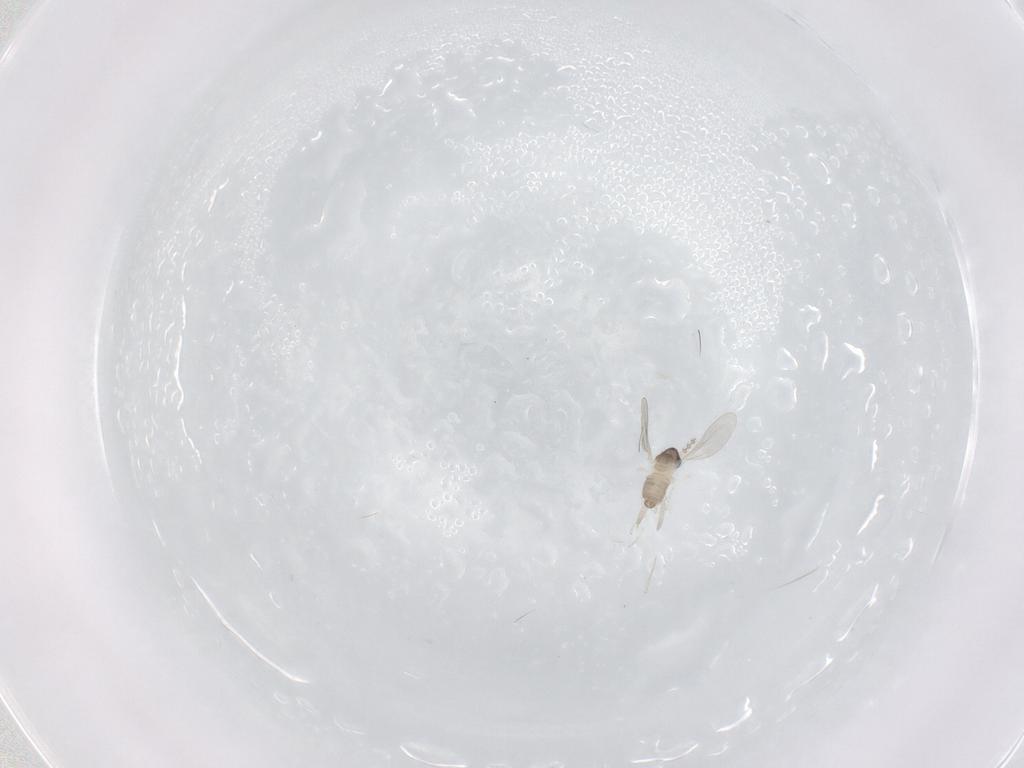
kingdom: Animalia
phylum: Arthropoda
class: Insecta
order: Diptera
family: Cecidomyiidae
